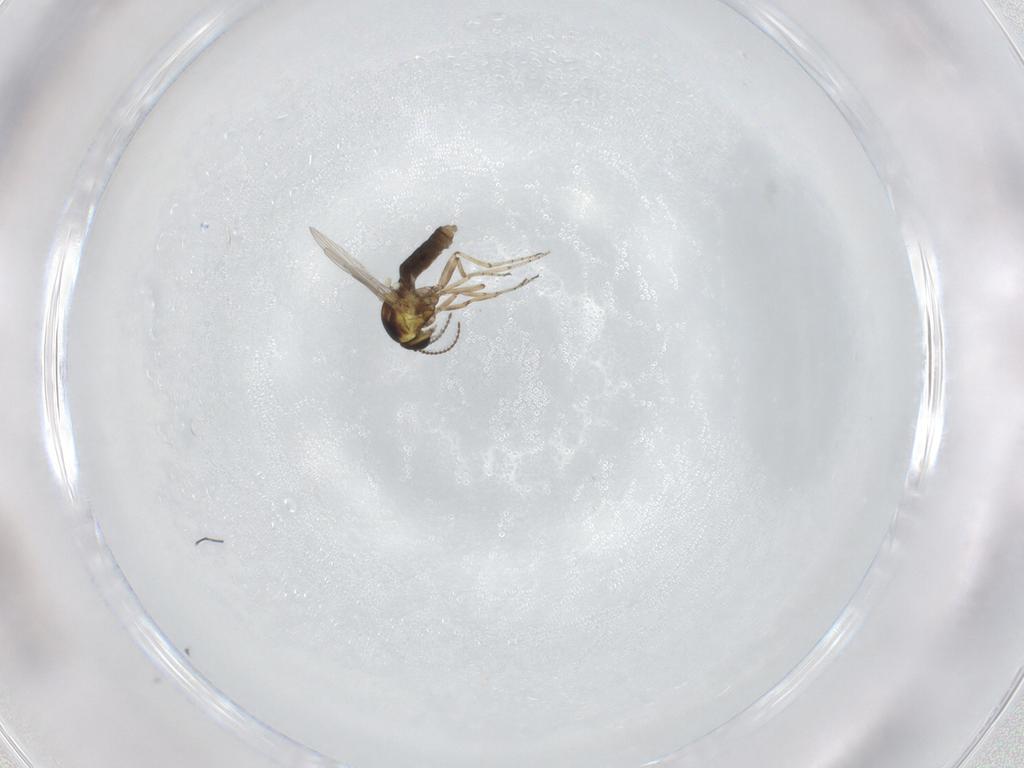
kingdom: Animalia
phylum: Arthropoda
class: Insecta
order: Diptera
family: Ceratopogonidae
